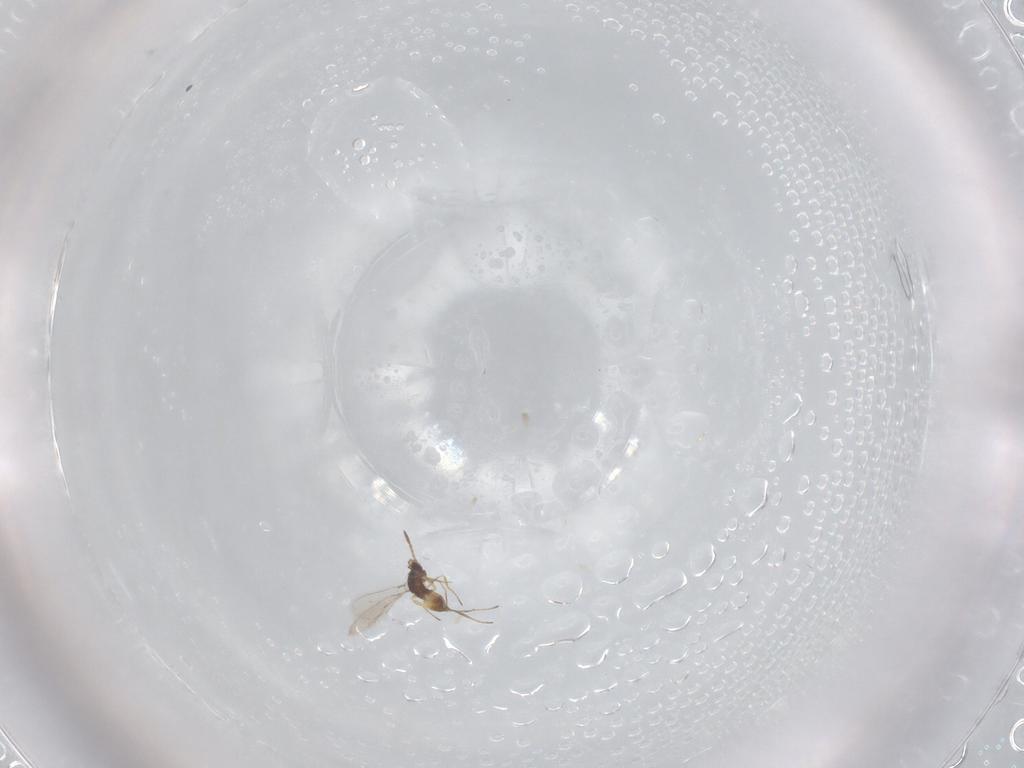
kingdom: Animalia
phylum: Arthropoda
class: Insecta
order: Hymenoptera
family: Mymaridae
